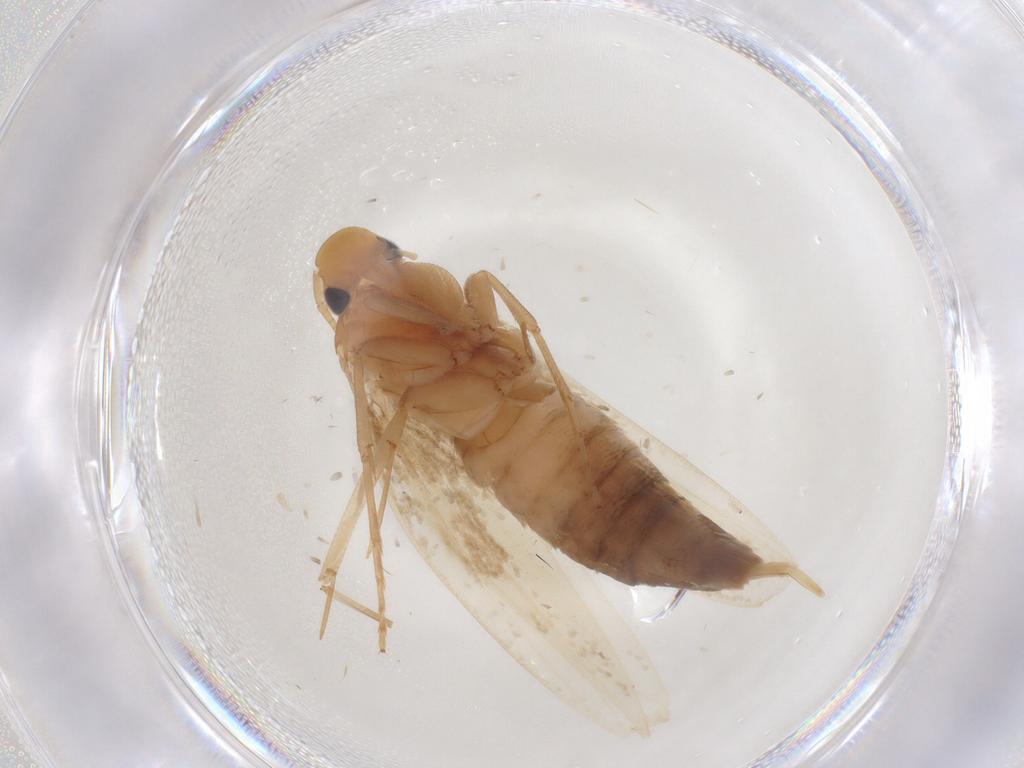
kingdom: Animalia
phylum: Arthropoda
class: Insecta
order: Lepidoptera
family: Tineidae
